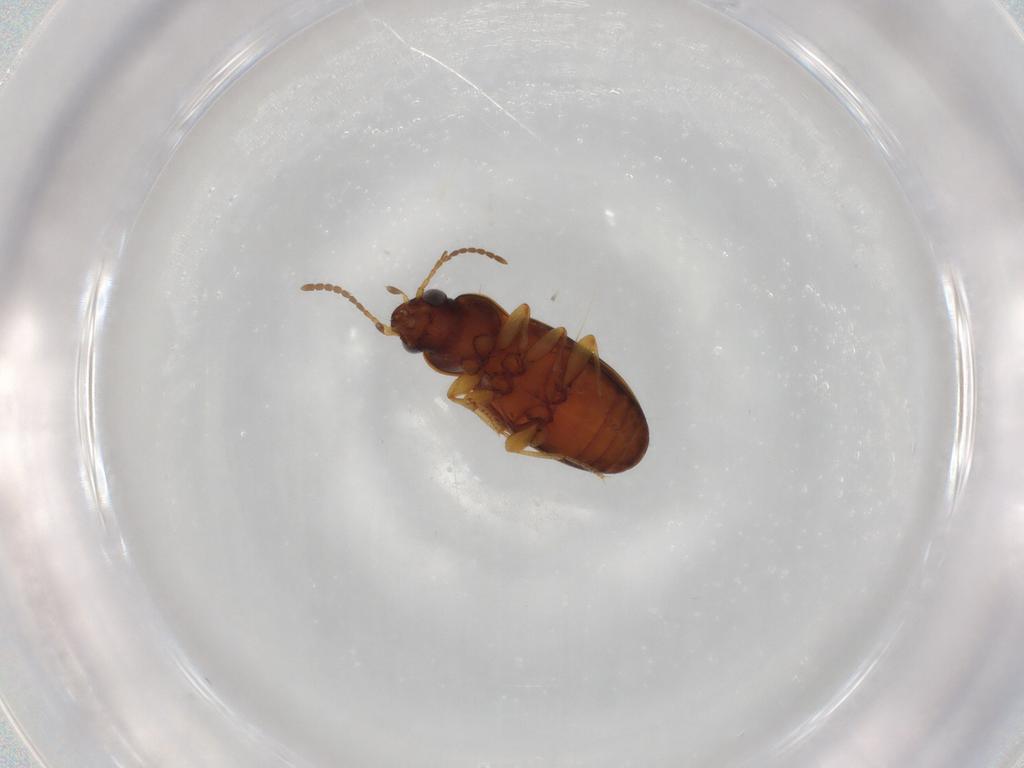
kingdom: Animalia
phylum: Arthropoda
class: Insecta
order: Coleoptera
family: Carabidae
